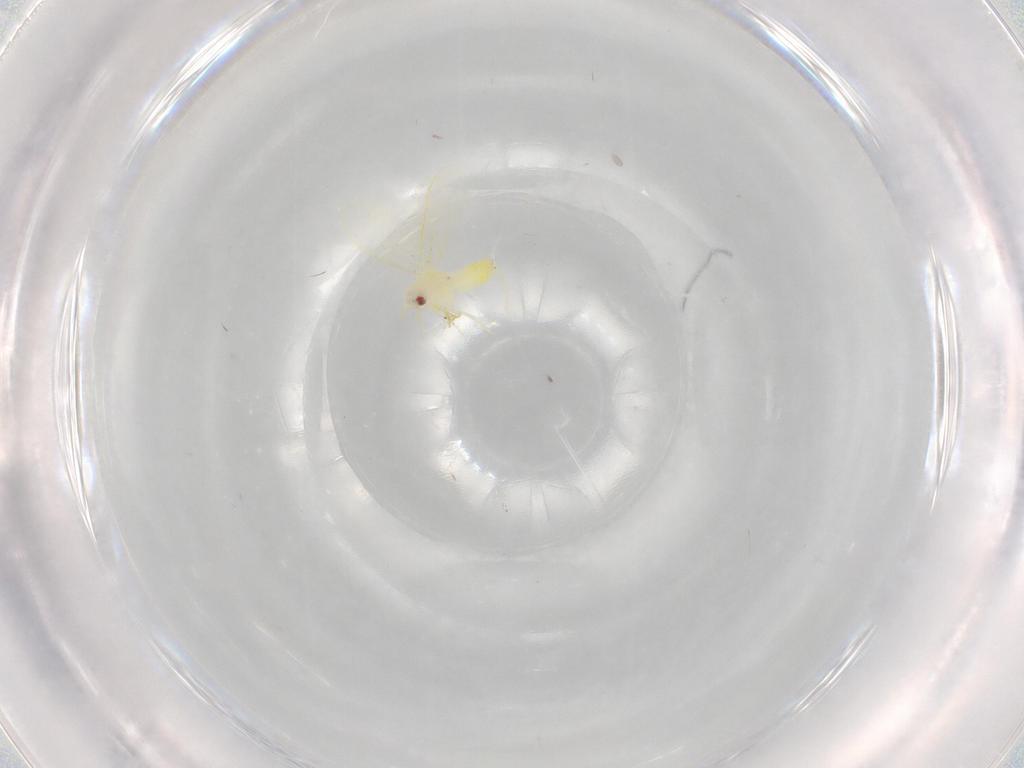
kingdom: Animalia
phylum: Arthropoda
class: Insecta
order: Hemiptera
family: Aleyrodidae
